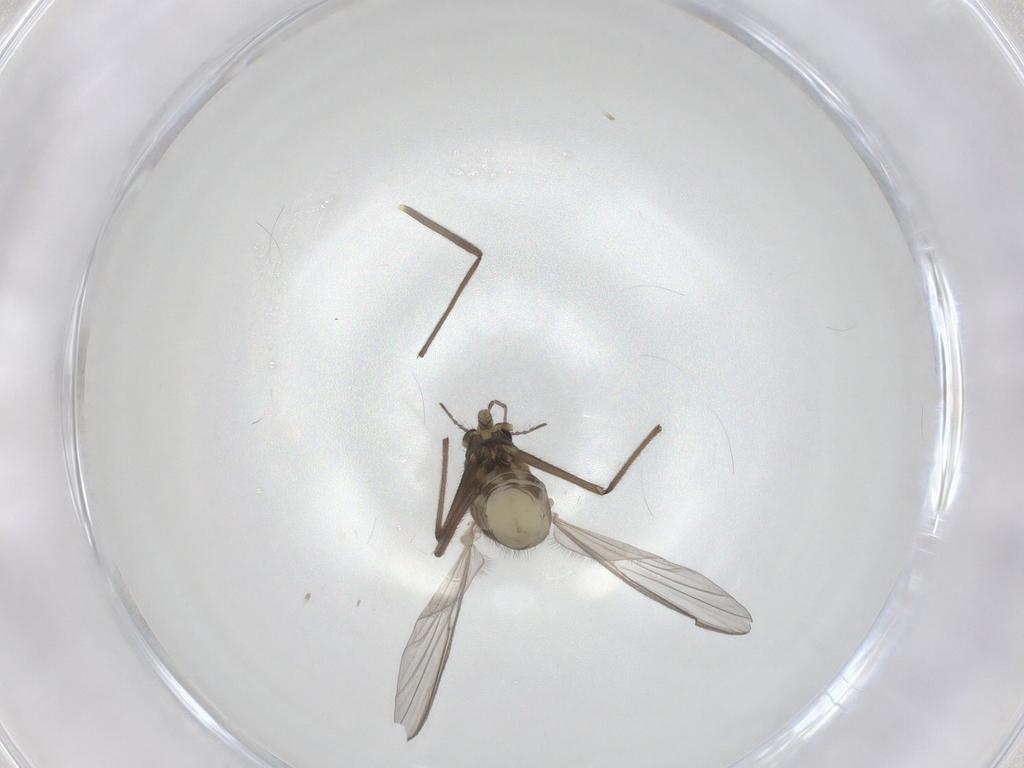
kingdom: Animalia
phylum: Arthropoda
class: Insecta
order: Diptera
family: Chironomidae
